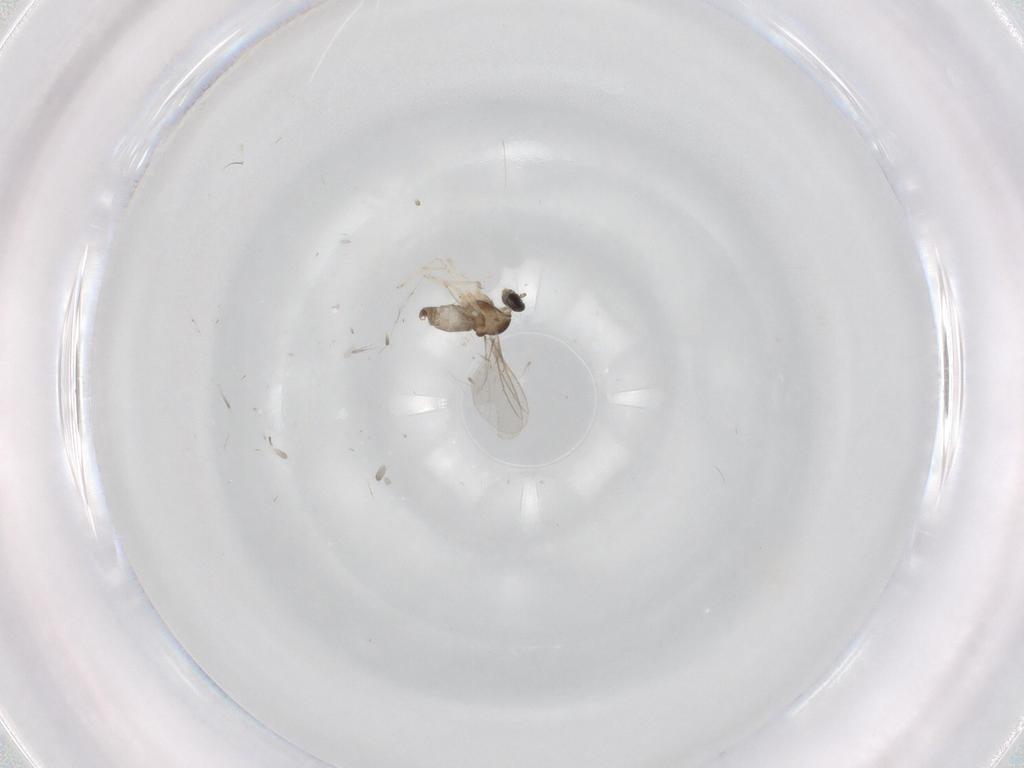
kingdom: Animalia
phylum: Arthropoda
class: Insecta
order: Diptera
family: Cecidomyiidae
